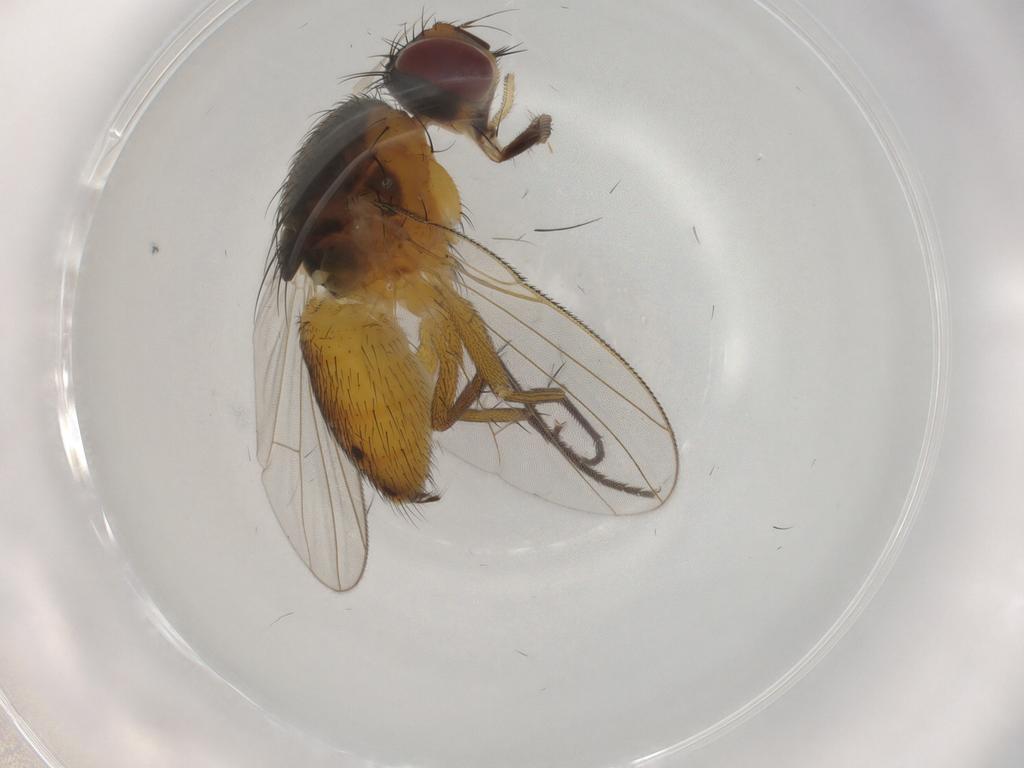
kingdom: Animalia
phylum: Arthropoda
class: Insecta
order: Diptera
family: Muscidae
